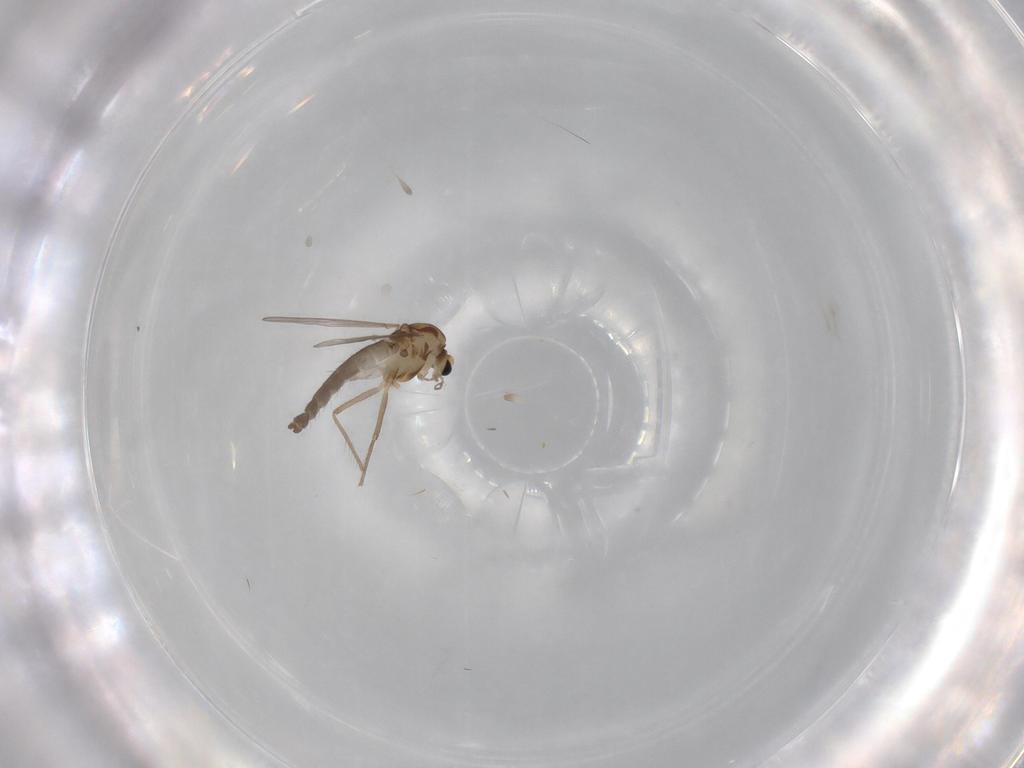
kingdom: Animalia
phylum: Arthropoda
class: Insecta
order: Diptera
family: Chironomidae
